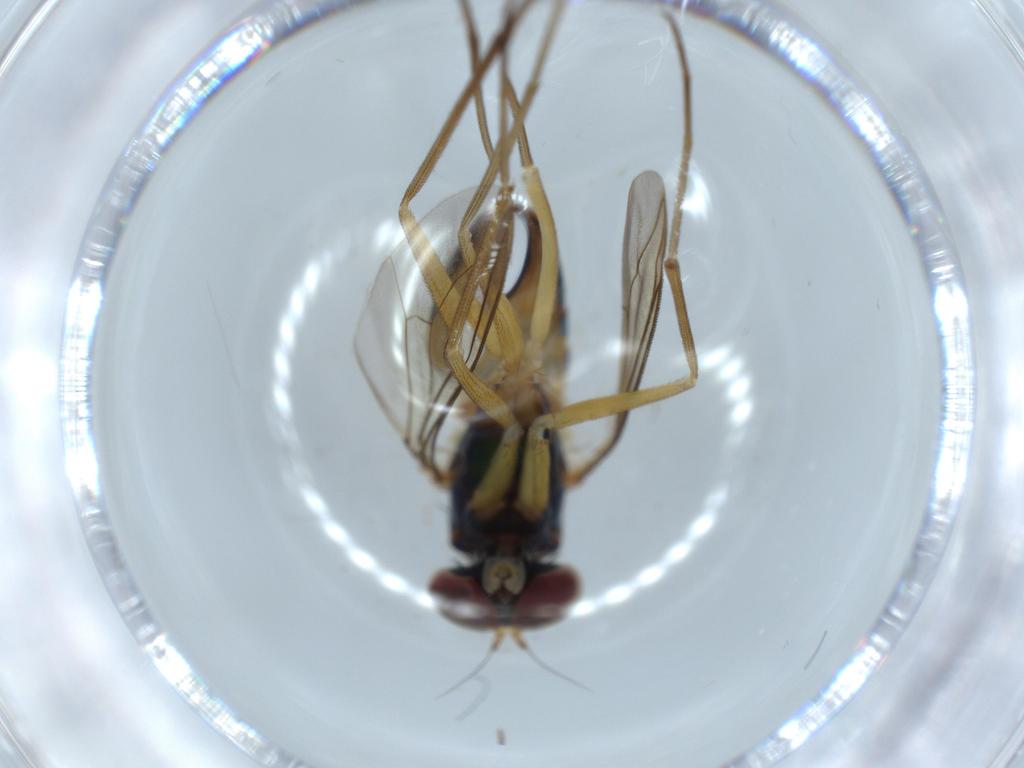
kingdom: Animalia
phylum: Arthropoda
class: Insecta
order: Diptera
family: Dolichopodidae
